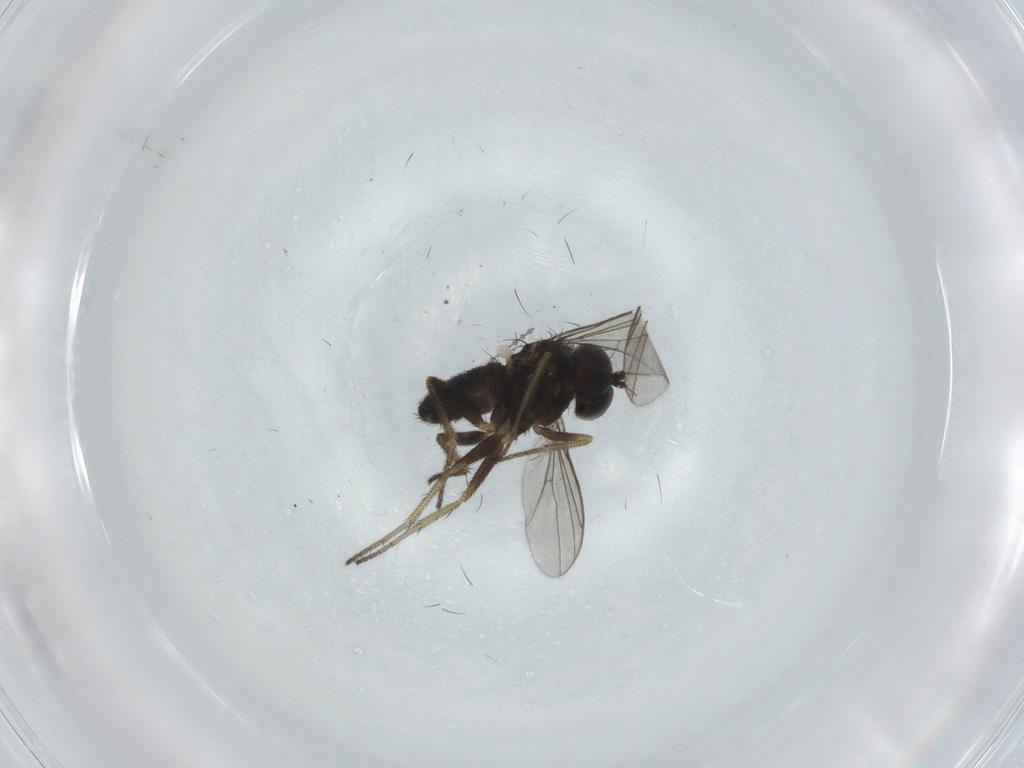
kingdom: Animalia
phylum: Arthropoda
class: Insecta
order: Diptera
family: Ceratopogonidae
